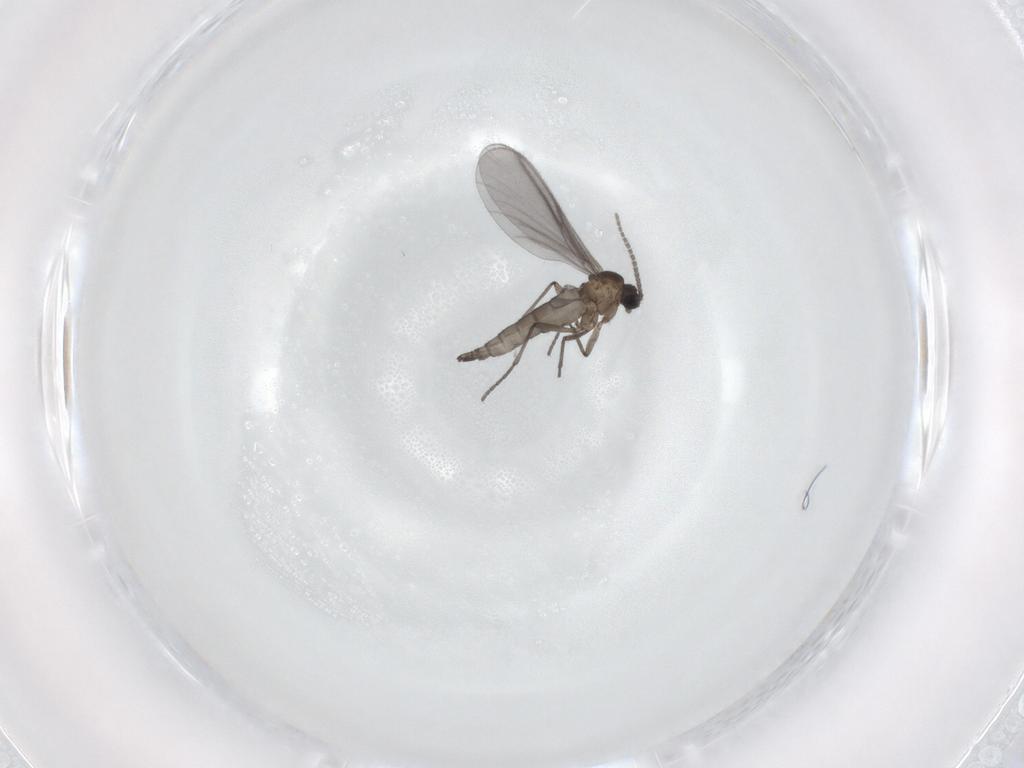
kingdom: Animalia
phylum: Arthropoda
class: Insecta
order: Diptera
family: Sciaridae
